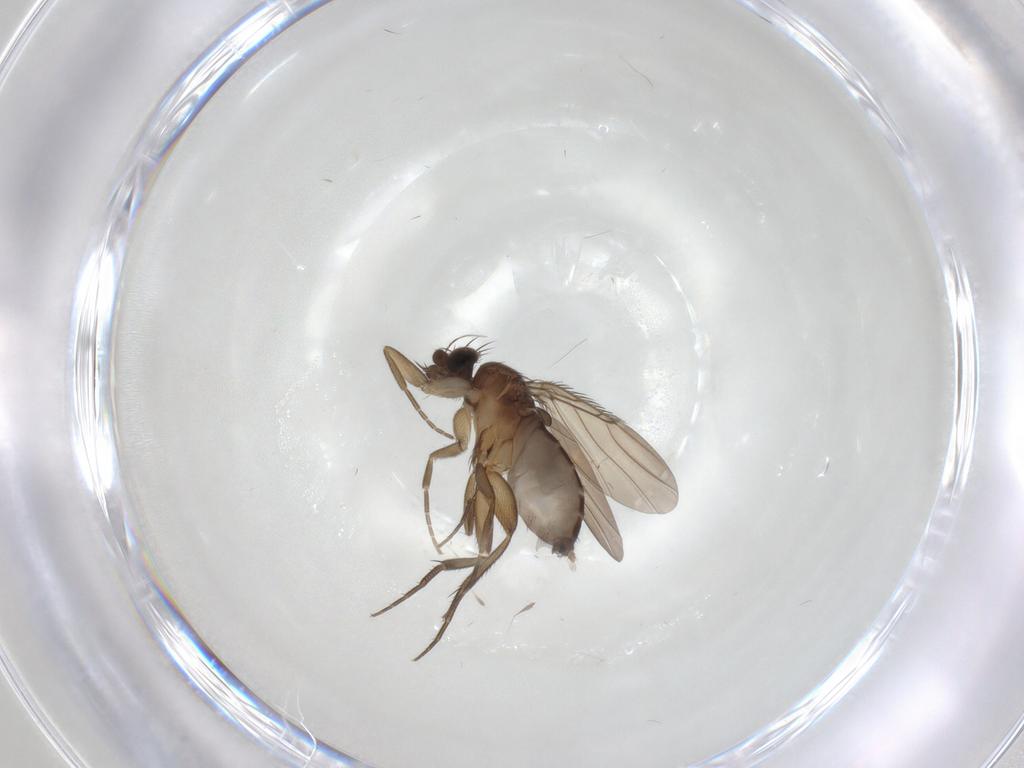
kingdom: Animalia
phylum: Arthropoda
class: Insecta
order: Diptera
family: Phoridae
